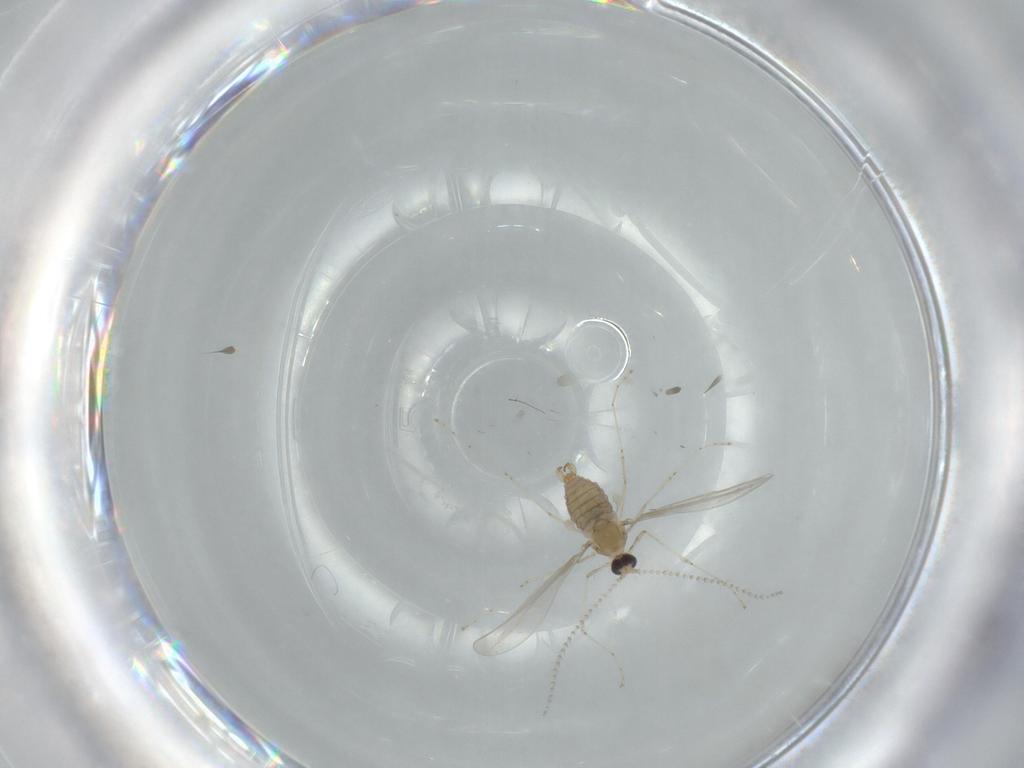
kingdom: Animalia
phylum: Arthropoda
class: Insecta
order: Diptera
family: Cecidomyiidae
